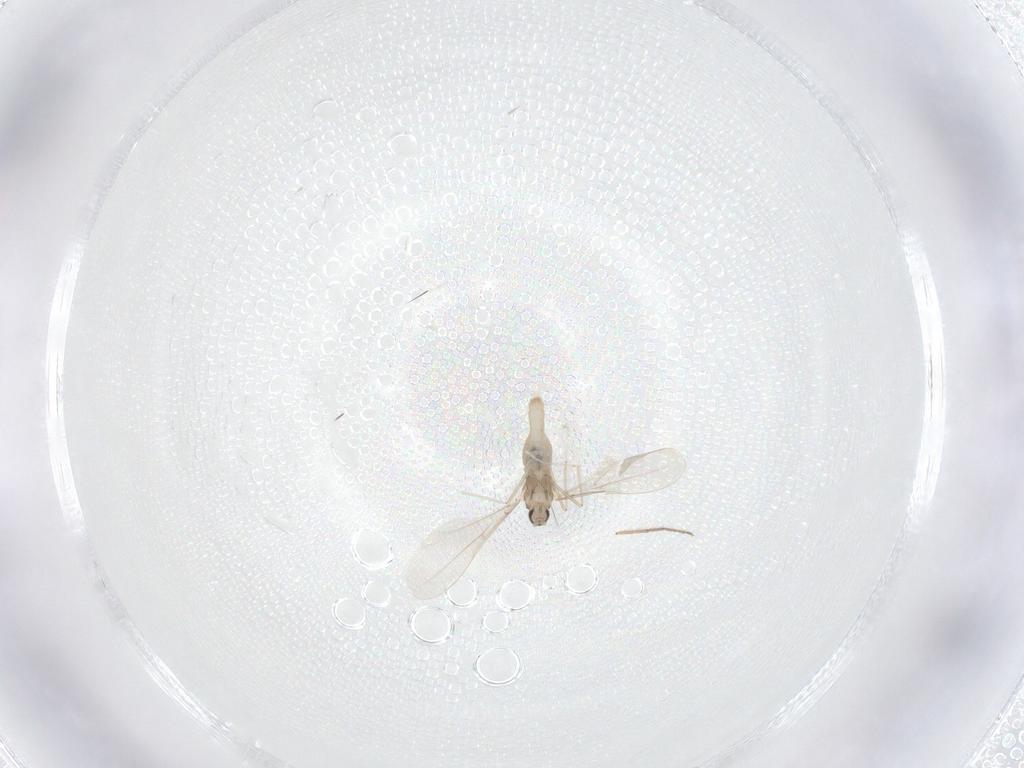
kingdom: Animalia
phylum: Arthropoda
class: Insecta
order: Diptera
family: Cecidomyiidae
